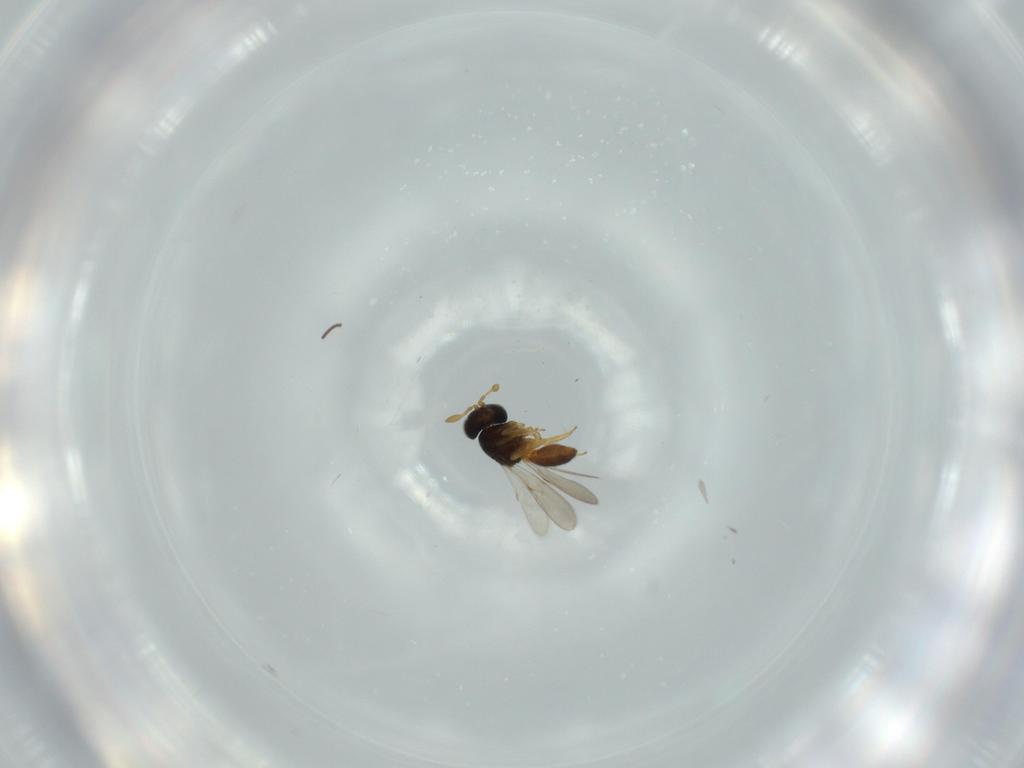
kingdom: Animalia
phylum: Arthropoda
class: Insecta
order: Hymenoptera
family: Scelionidae
